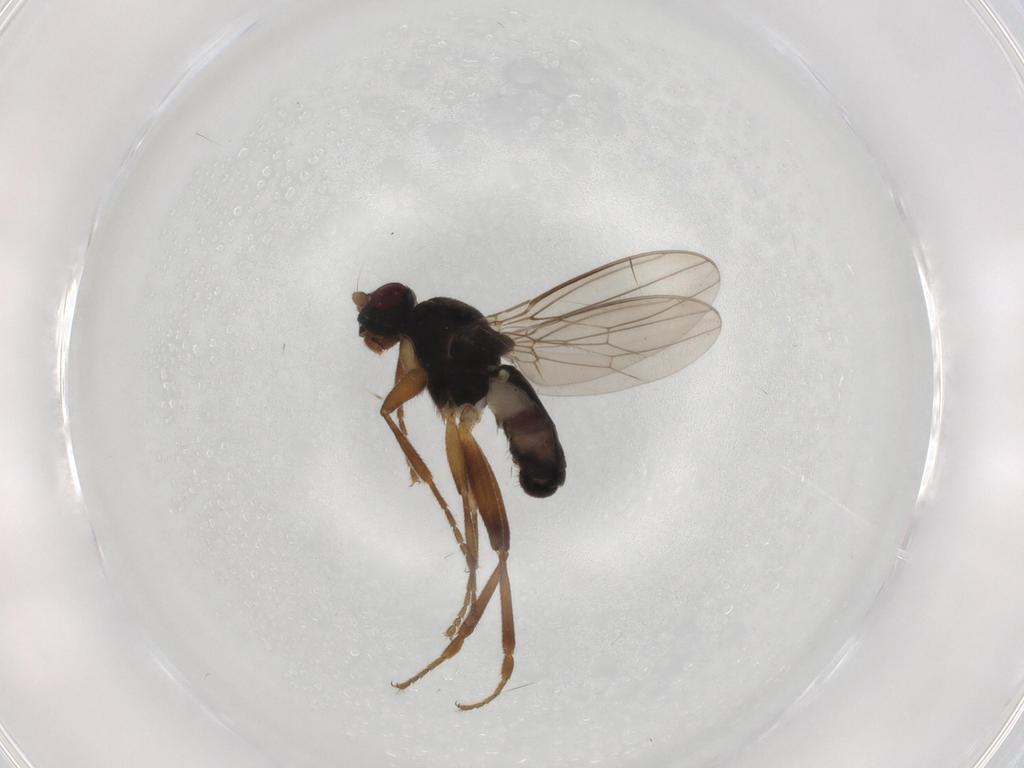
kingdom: Animalia
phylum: Arthropoda
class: Insecta
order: Diptera
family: Sphaeroceridae
